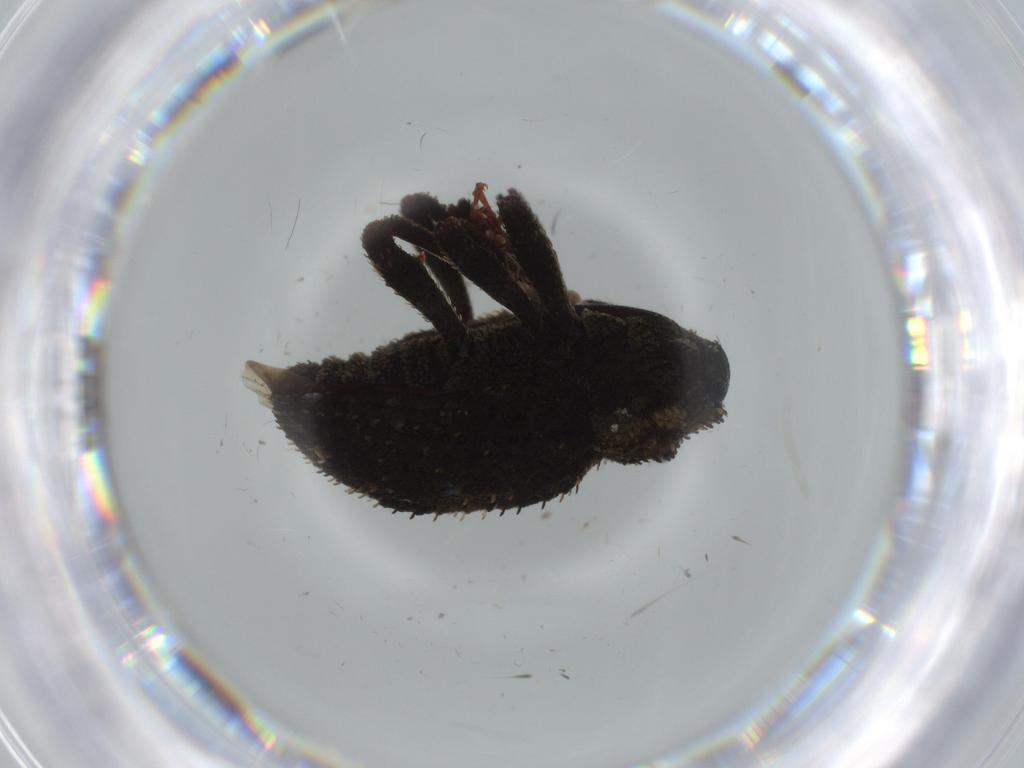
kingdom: Animalia
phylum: Arthropoda
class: Insecta
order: Coleoptera
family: Curculionidae
